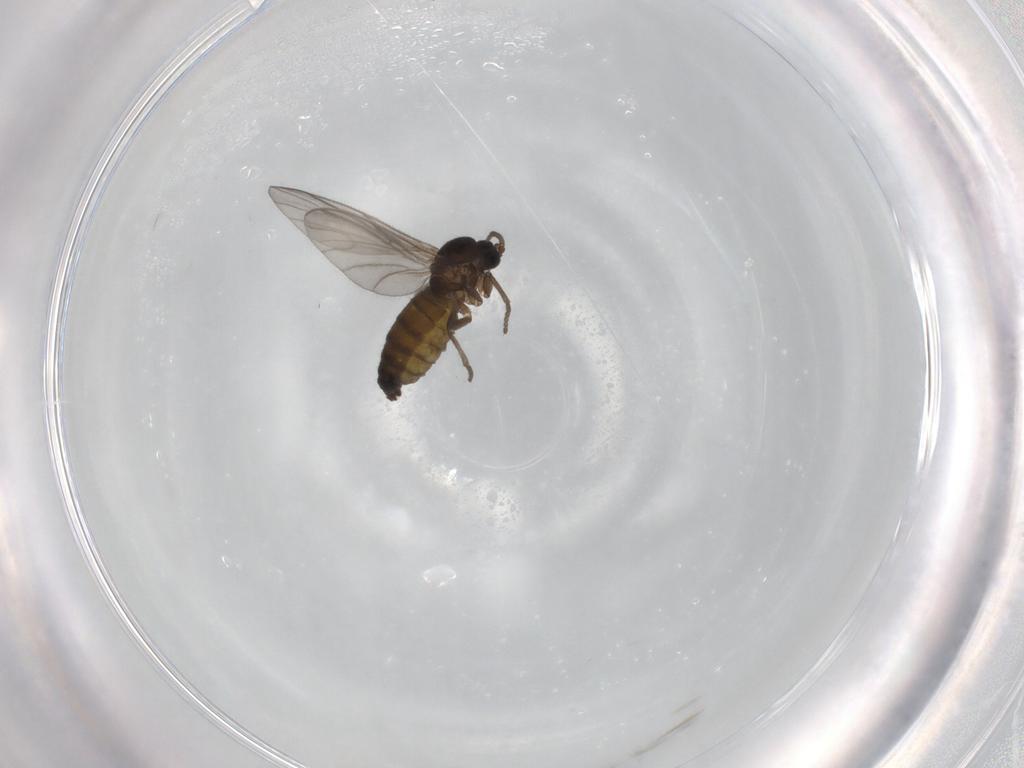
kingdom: Animalia
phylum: Arthropoda
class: Insecta
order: Diptera
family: Sciaridae
